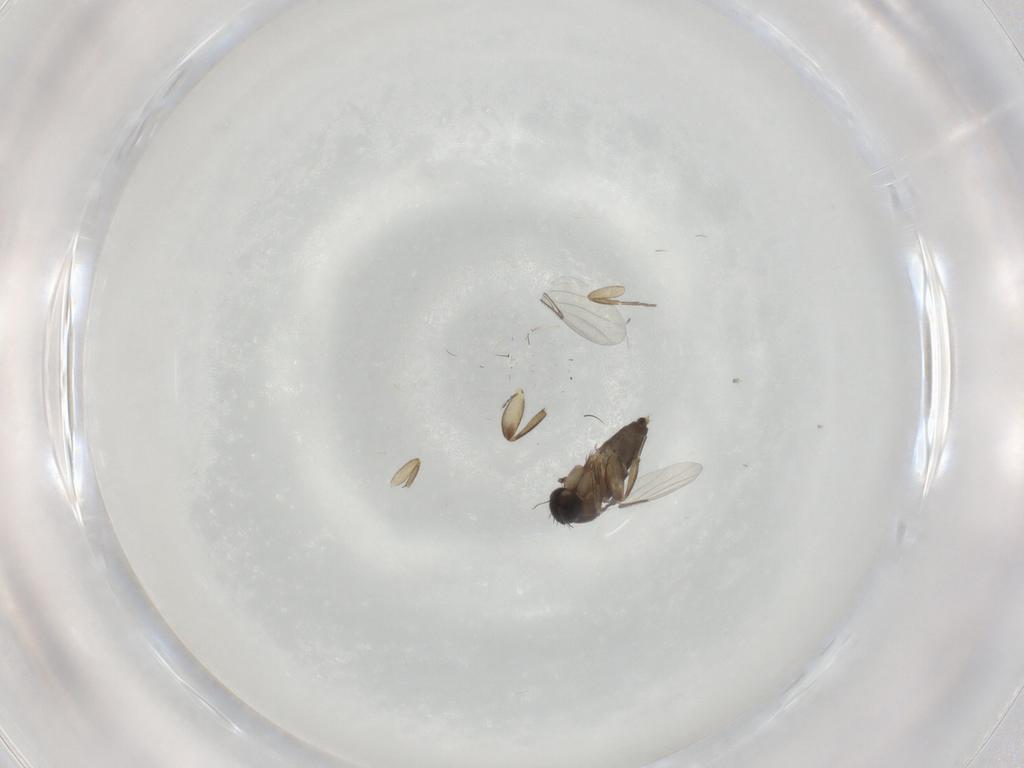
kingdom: Animalia
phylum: Arthropoda
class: Insecta
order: Diptera
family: Phoridae
